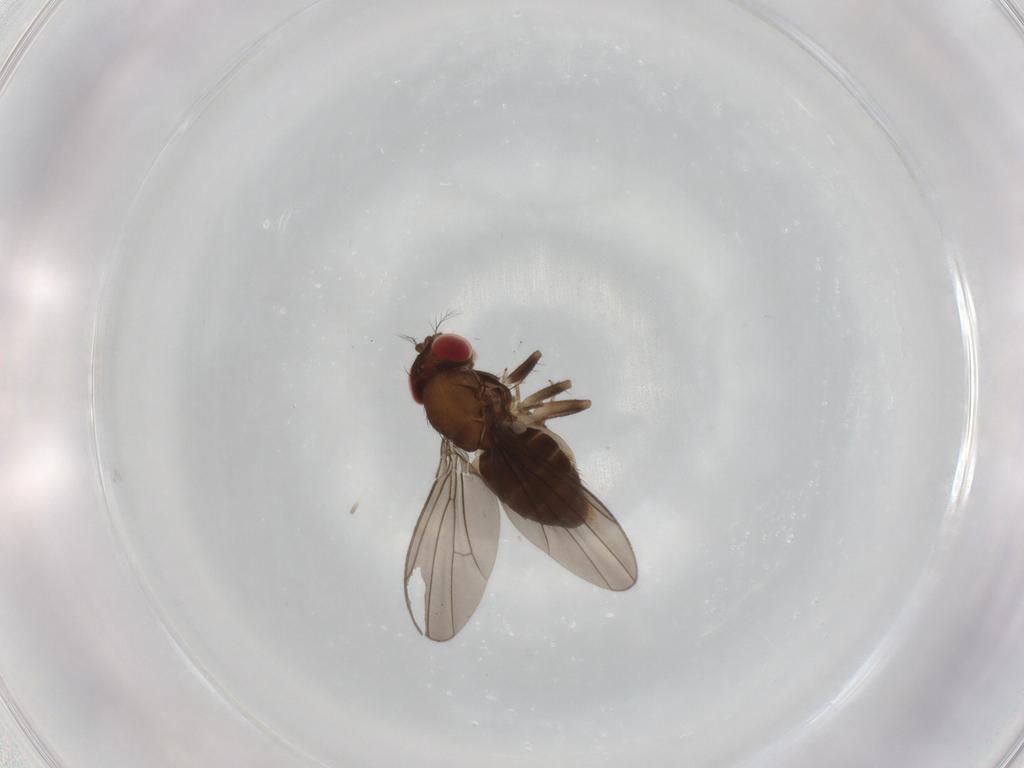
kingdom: Animalia
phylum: Arthropoda
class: Insecta
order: Diptera
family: Drosophilidae
